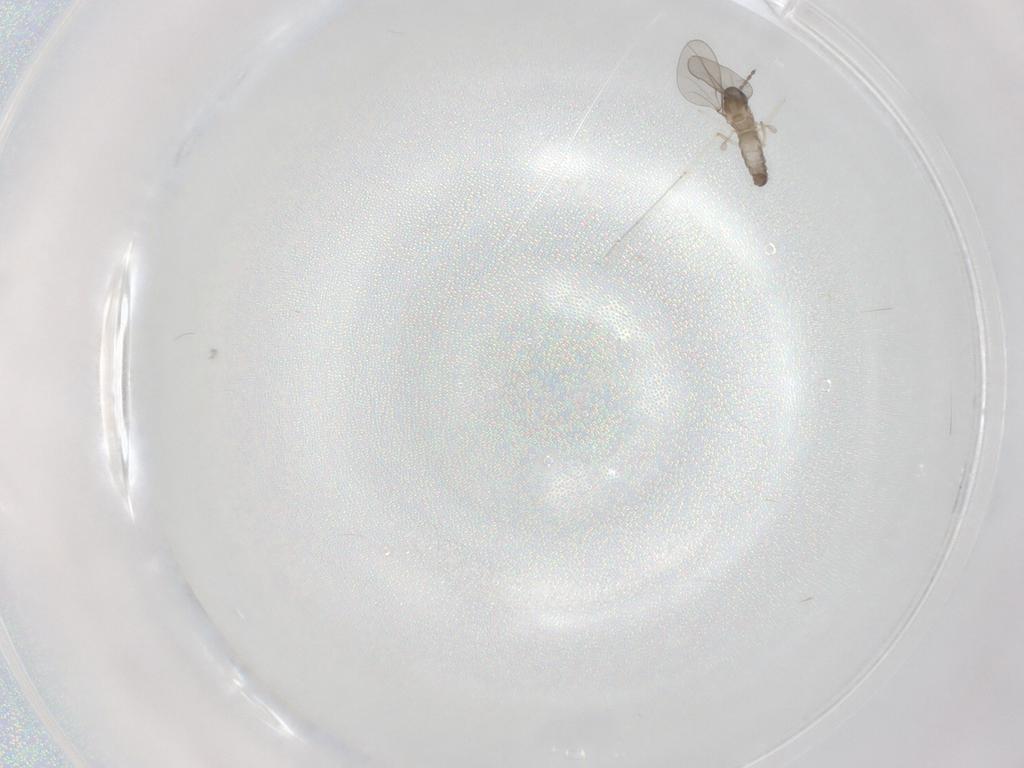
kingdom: Animalia
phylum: Arthropoda
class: Insecta
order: Diptera
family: Cecidomyiidae
